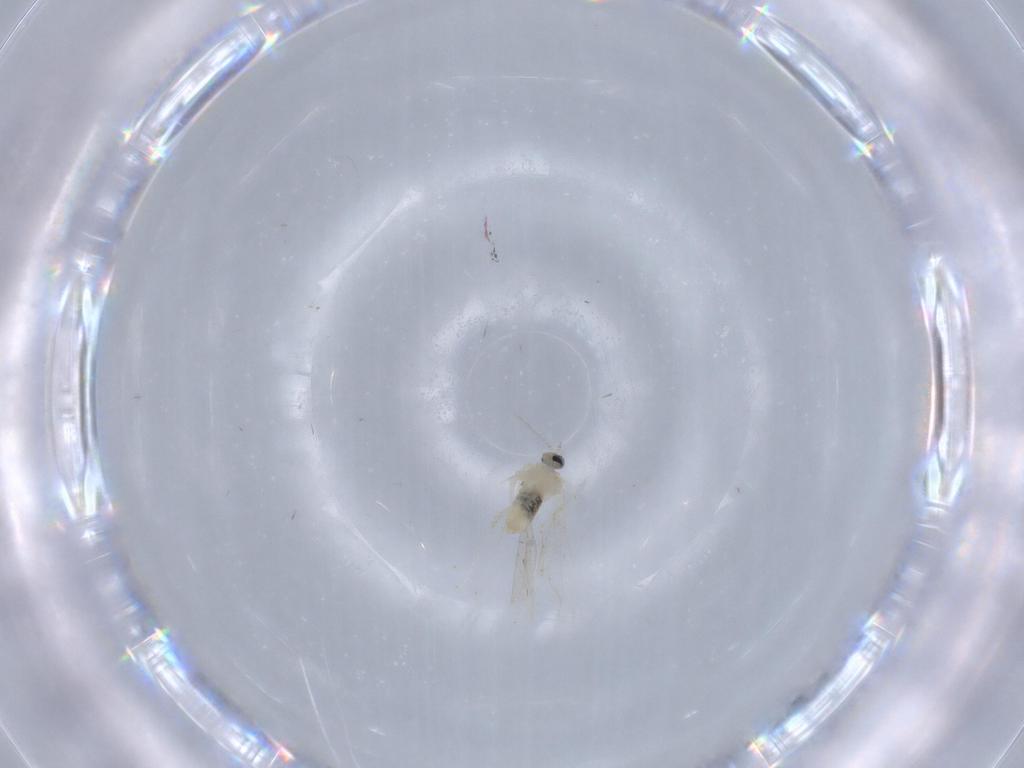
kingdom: Animalia
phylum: Arthropoda
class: Insecta
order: Diptera
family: Cecidomyiidae
